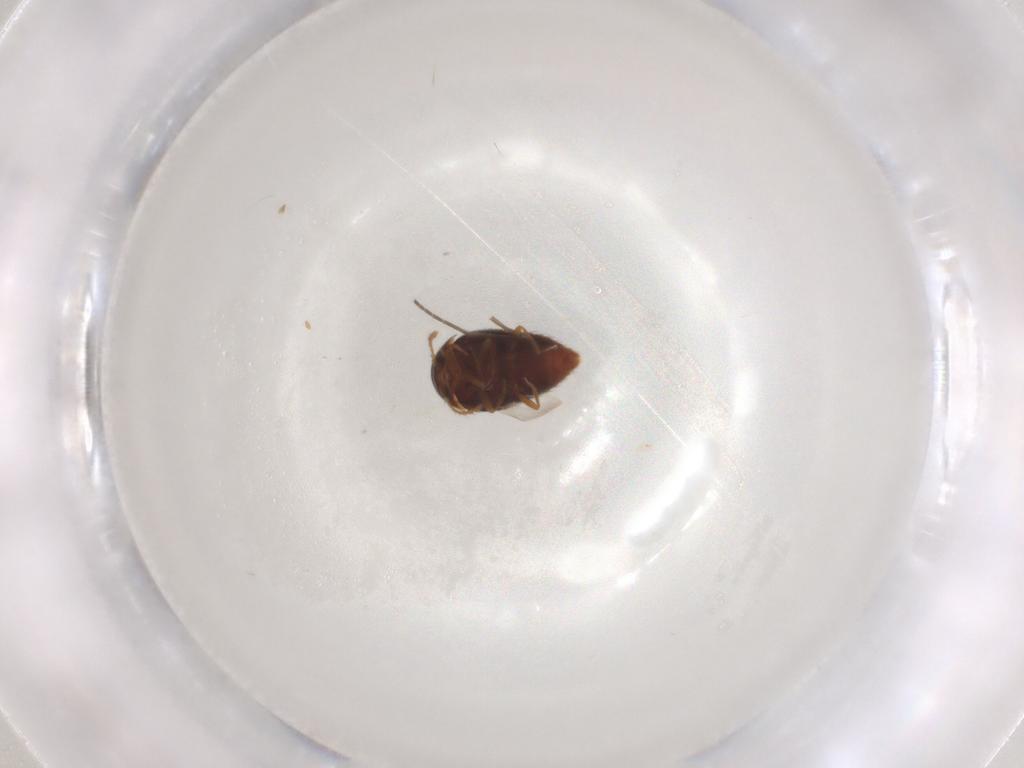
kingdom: Animalia
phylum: Arthropoda
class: Insecta
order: Coleoptera
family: Staphylinidae
